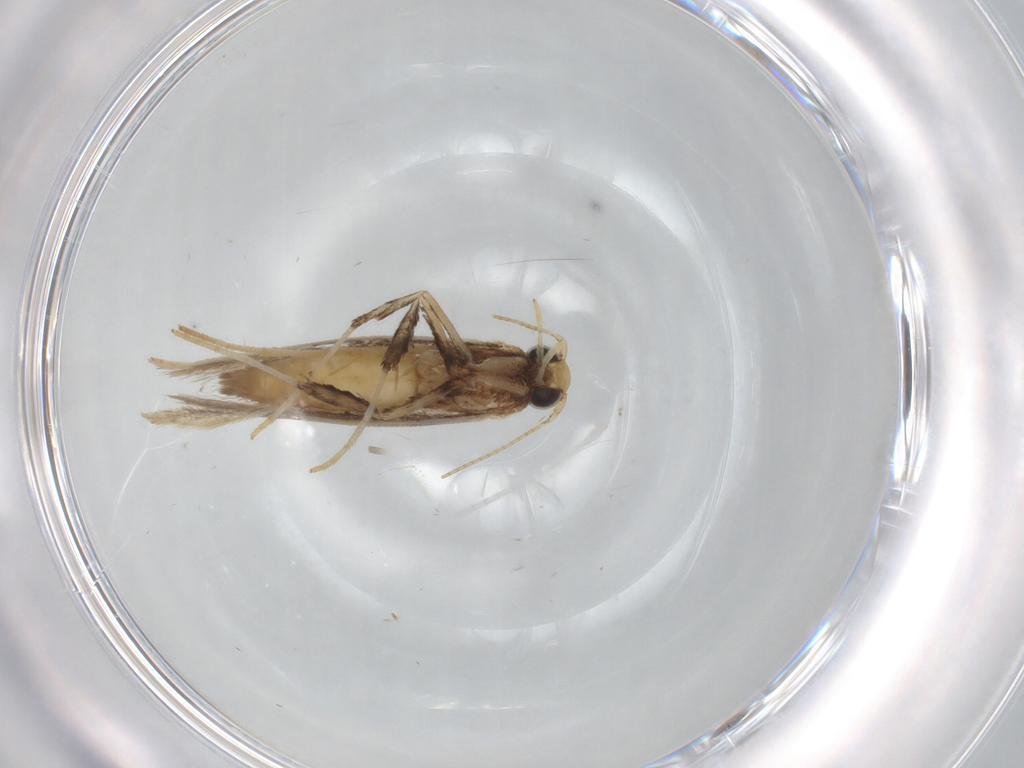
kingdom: Animalia
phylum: Arthropoda
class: Insecta
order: Lepidoptera
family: Gracillariidae
